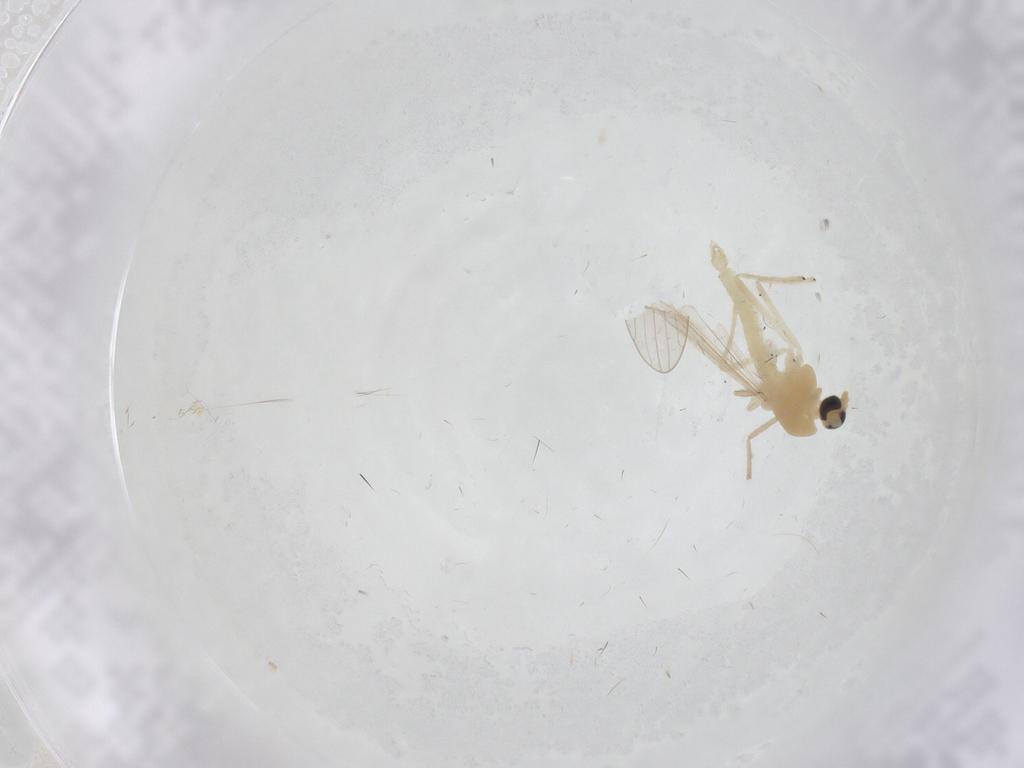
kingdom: Animalia
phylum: Arthropoda
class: Insecta
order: Diptera
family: Chironomidae
